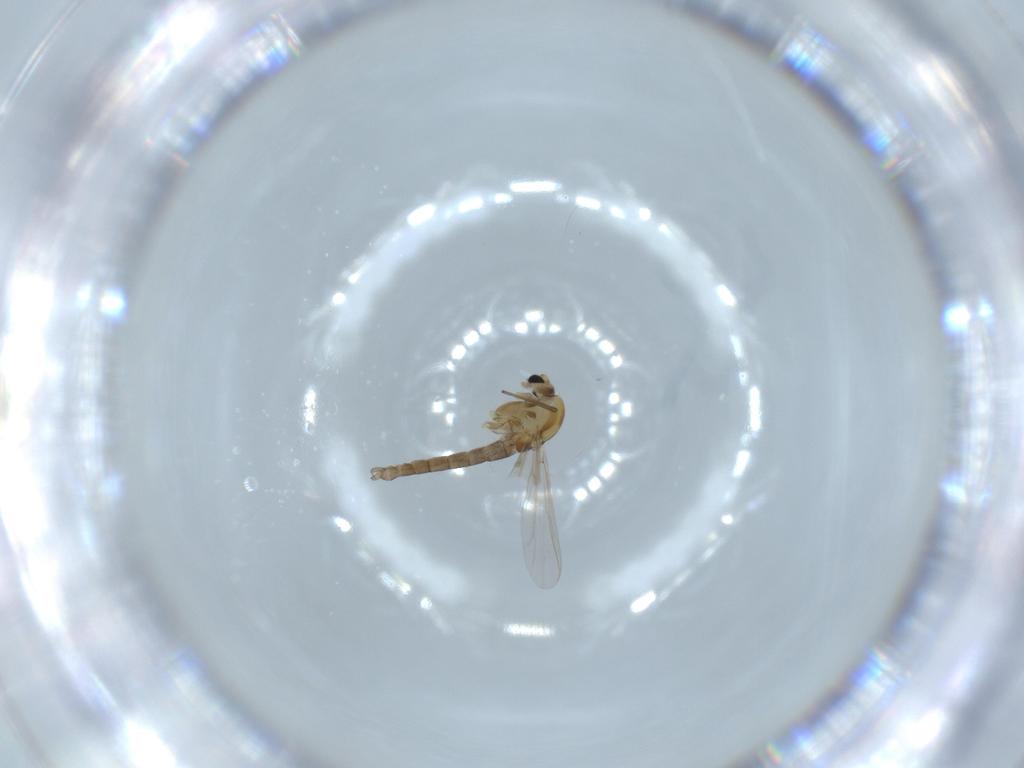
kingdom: Animalia
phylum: Arthropoda
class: Insecta
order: Diptera
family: Chironomidae
